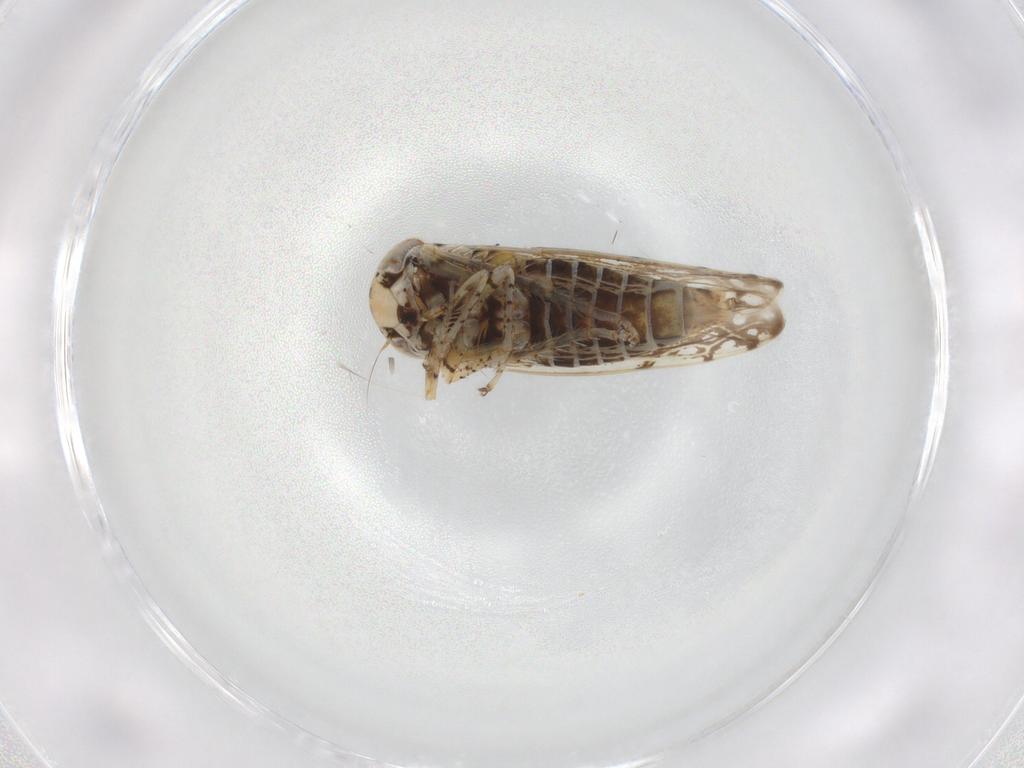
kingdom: Animalia
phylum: Arthropoda
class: Insecta
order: Hemiptera
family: Cicadellidae
